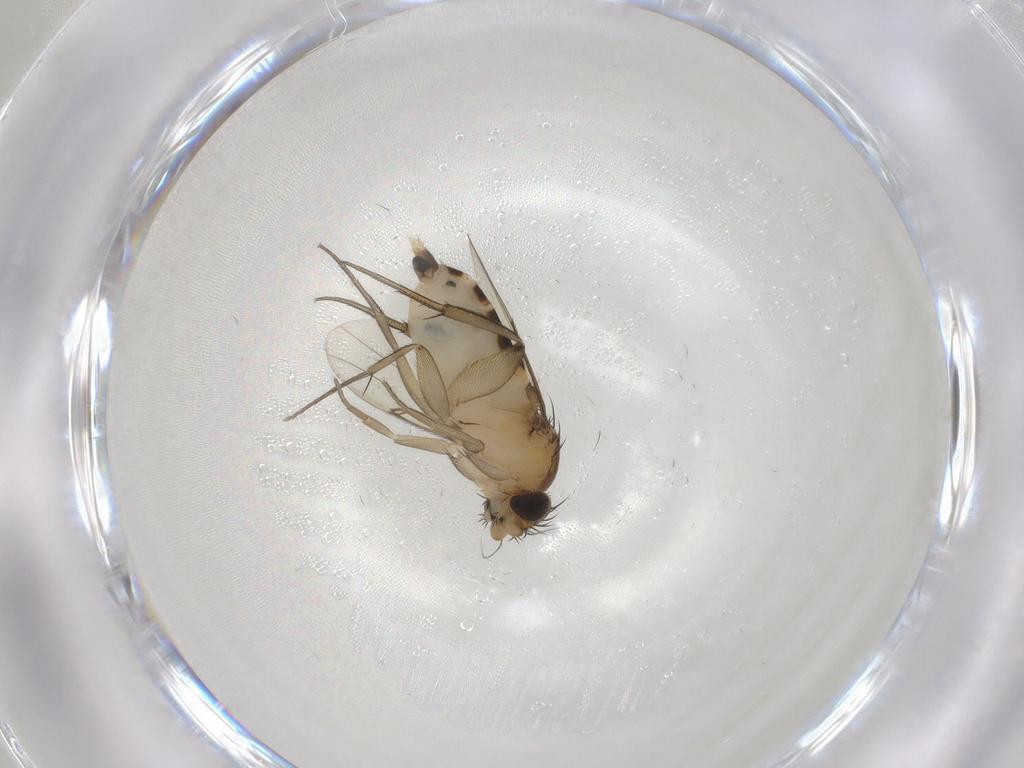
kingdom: Animalia
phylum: Arthropoda
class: Insecta
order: Diptera
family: Phoridae
